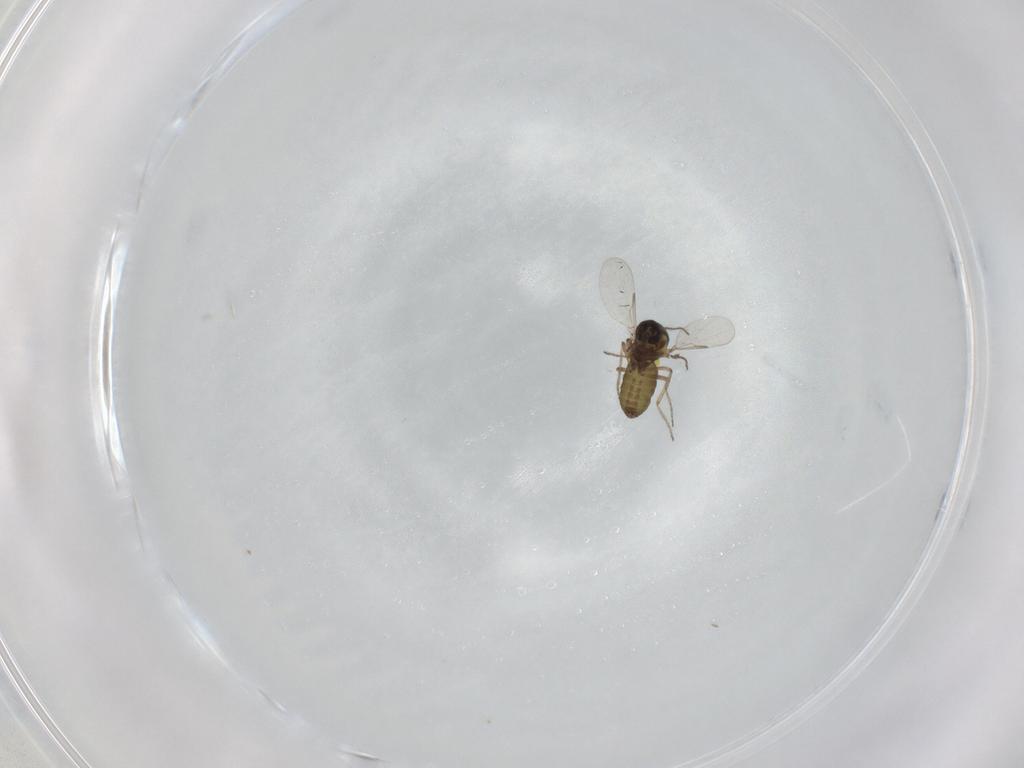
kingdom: Animalia
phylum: Arthropoda
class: Insecta
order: Diptera
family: Ceratopogonidae
